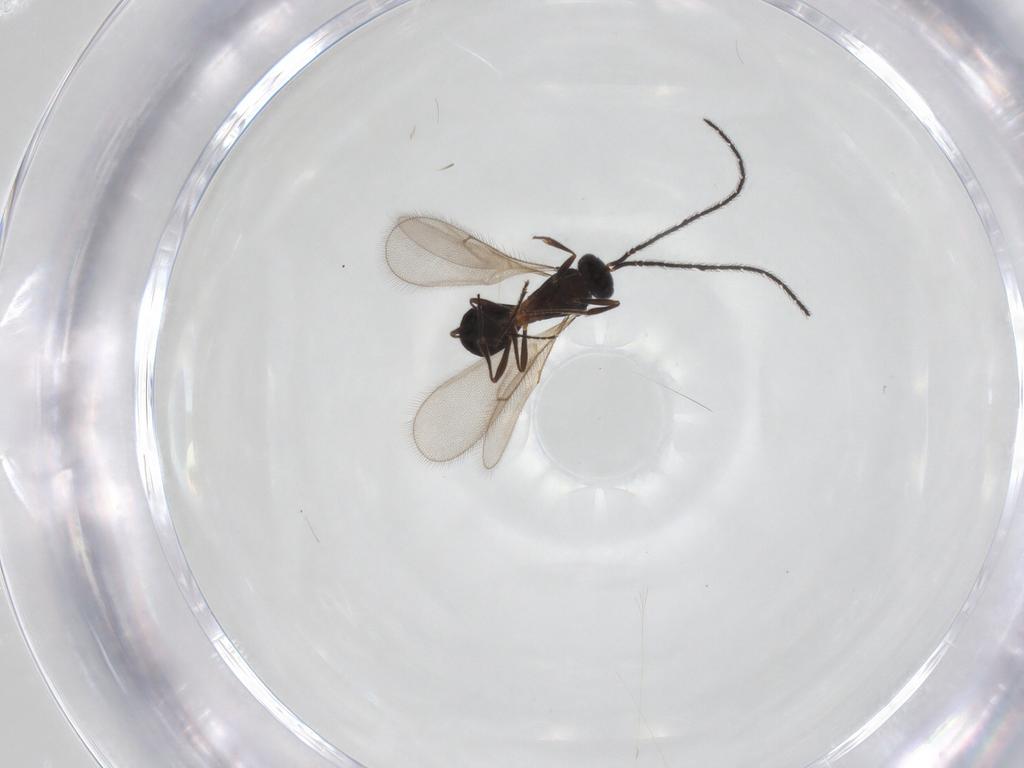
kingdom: Animalia
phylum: Arthropoda
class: Insecta
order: Hymenoptera
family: Scelionidae
